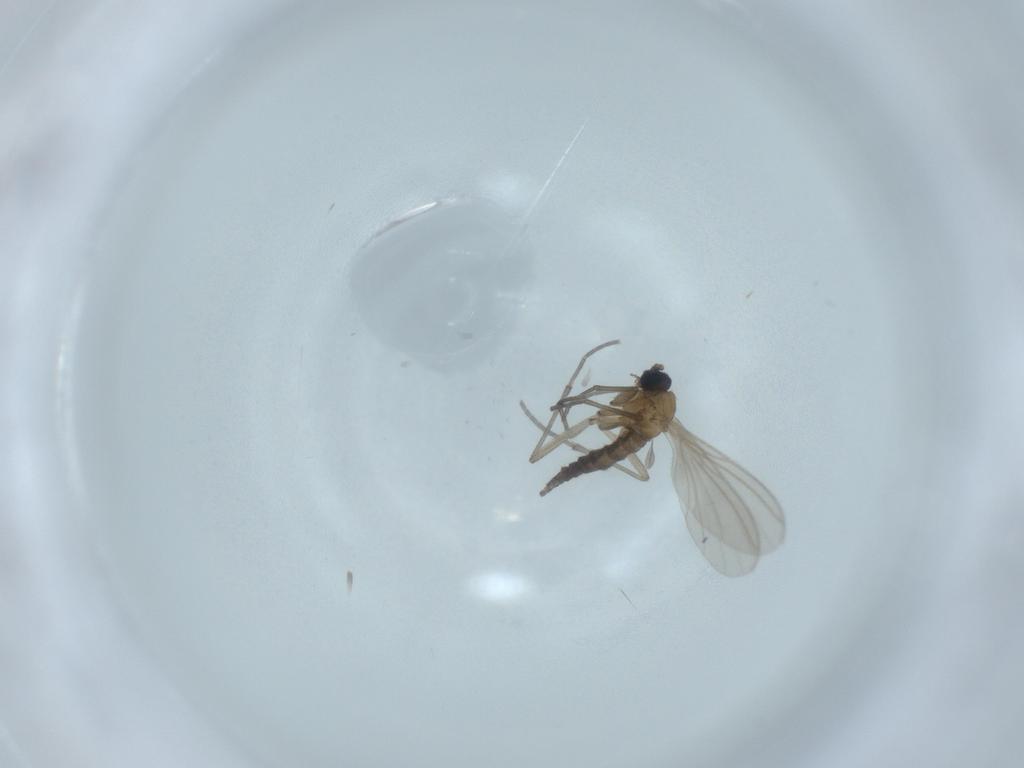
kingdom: Animalia
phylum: Arthropoda
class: Insecta
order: Diptera
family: Sciaridae
